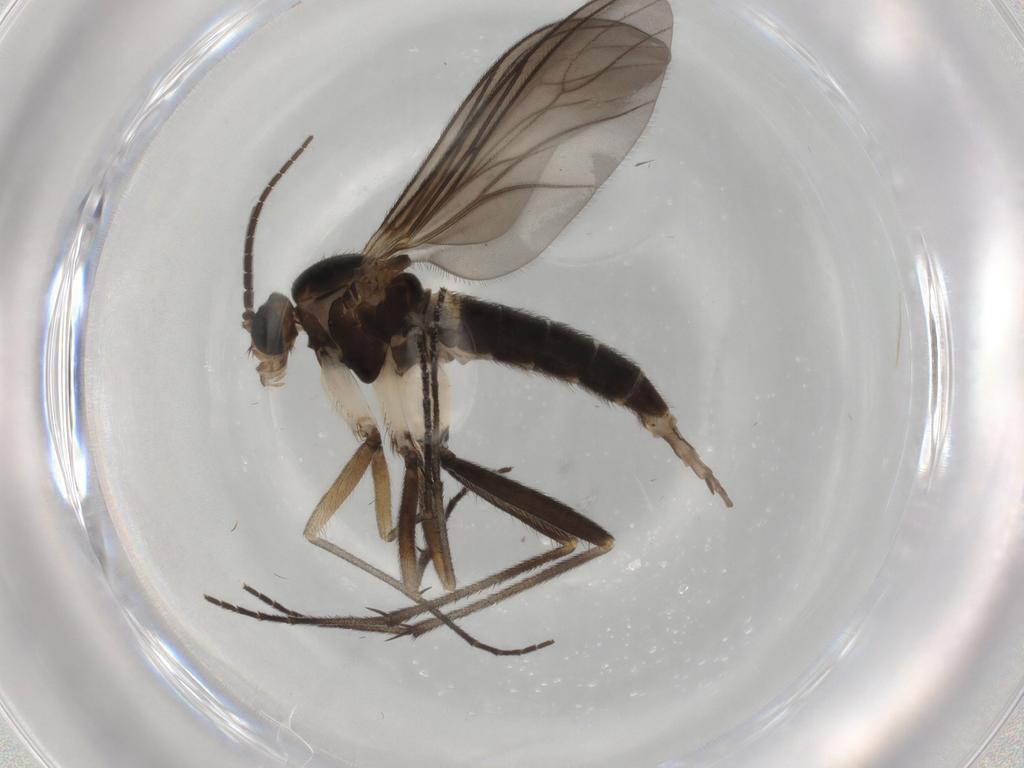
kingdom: Animalia
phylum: Arthropoda
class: Insecta
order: Diptera
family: Sciaridae
